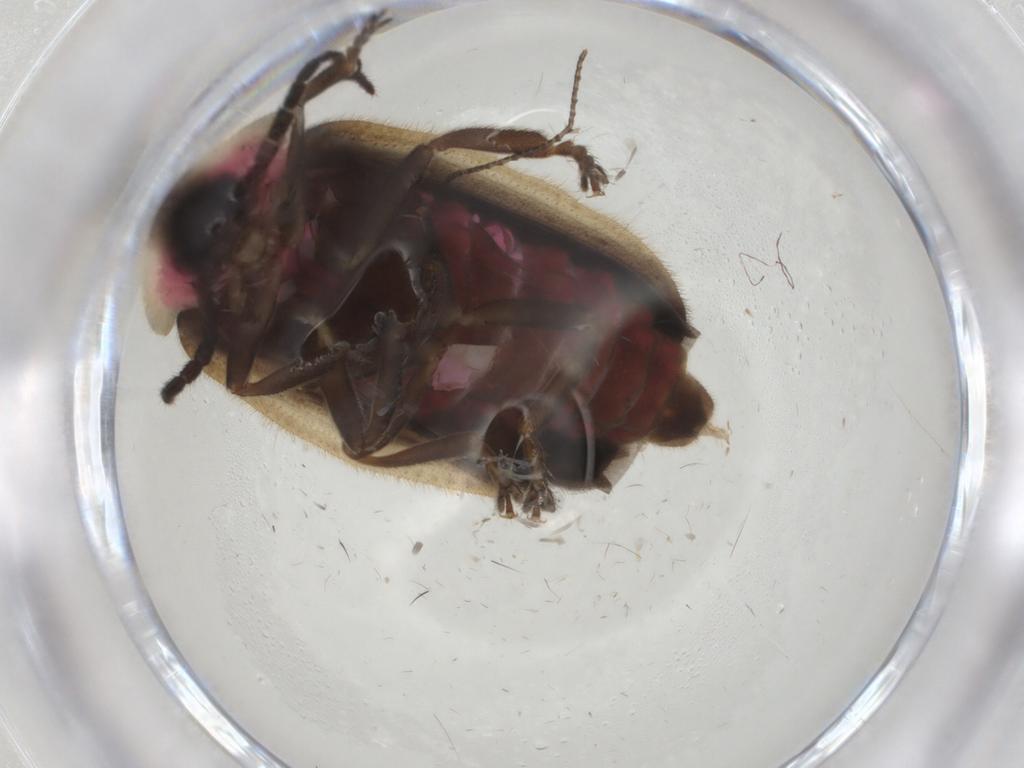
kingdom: Animalia
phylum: Arthropoda
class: Insecta
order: Coleoptera
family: Lampyridae
